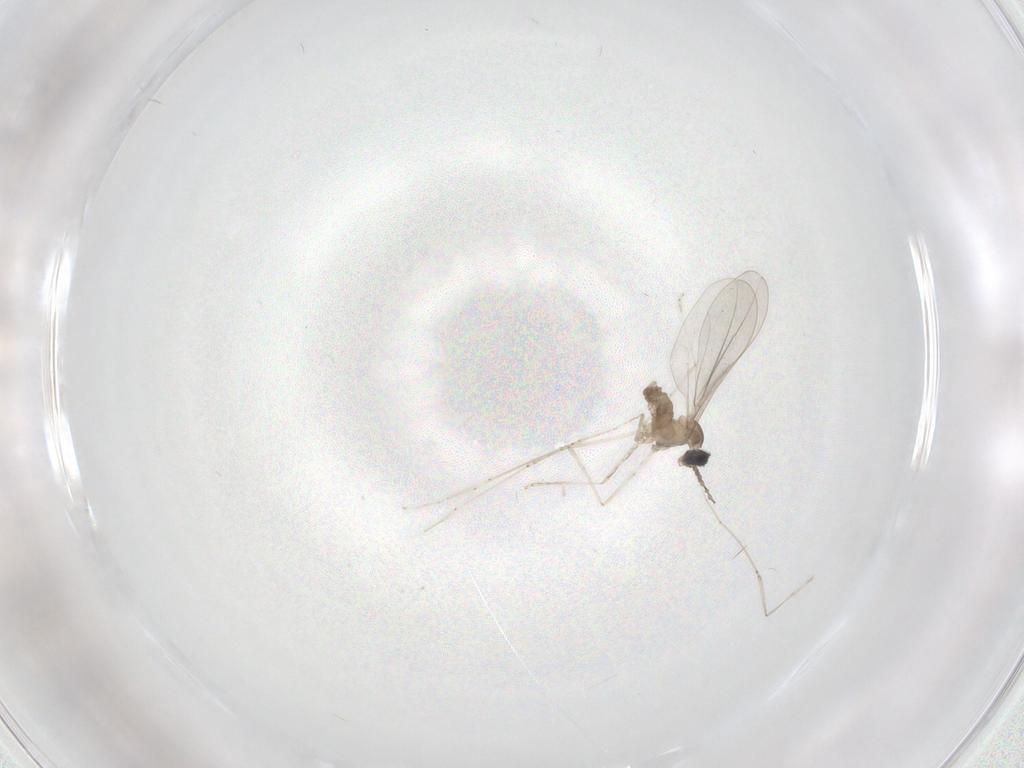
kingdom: Animalia
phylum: Arthropoda
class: Insecta
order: Diptera
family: Cecidomyiidae
